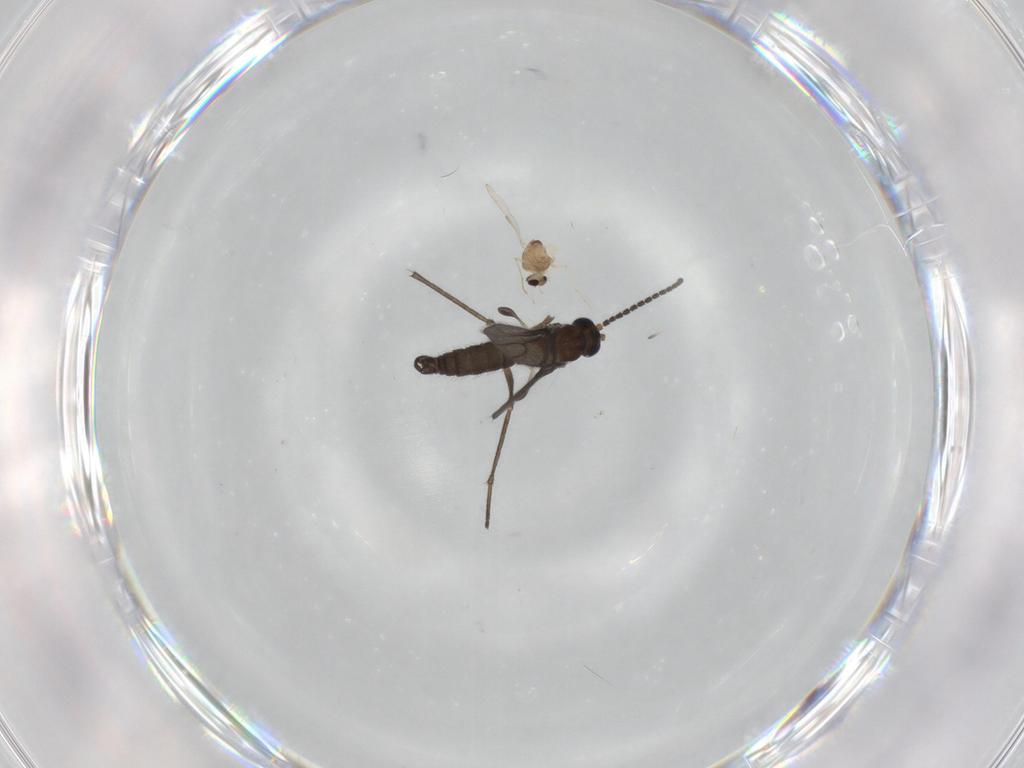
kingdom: Animalia
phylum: Arthropoda
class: Insecta
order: Diptera
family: Sciaridae
